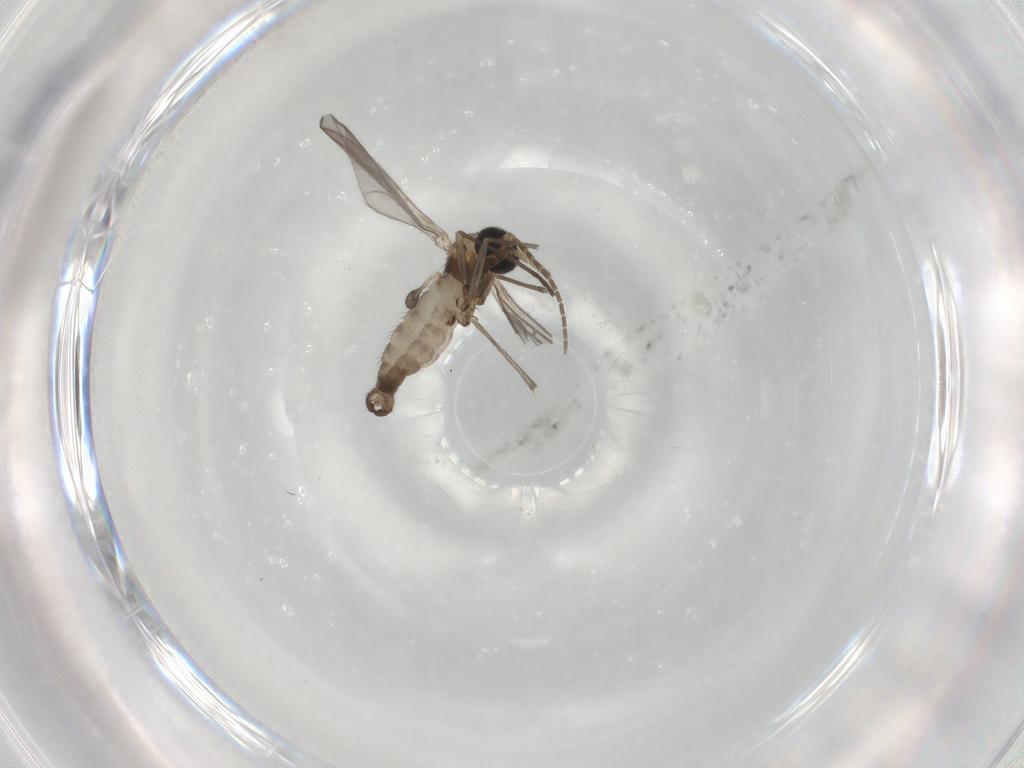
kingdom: Animalia
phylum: Arthropoda
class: Insecta
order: Diptera
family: Sciaridae
